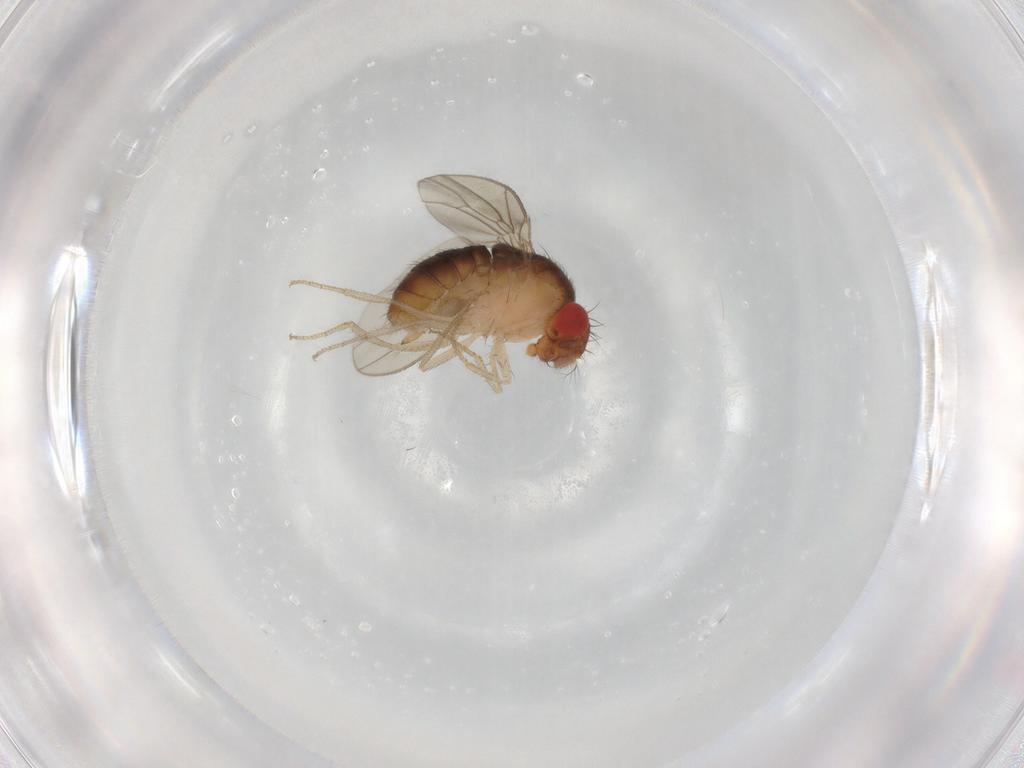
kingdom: Animalia
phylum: Arthropoda
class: Insecta
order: Diptera
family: Drosophilidae
